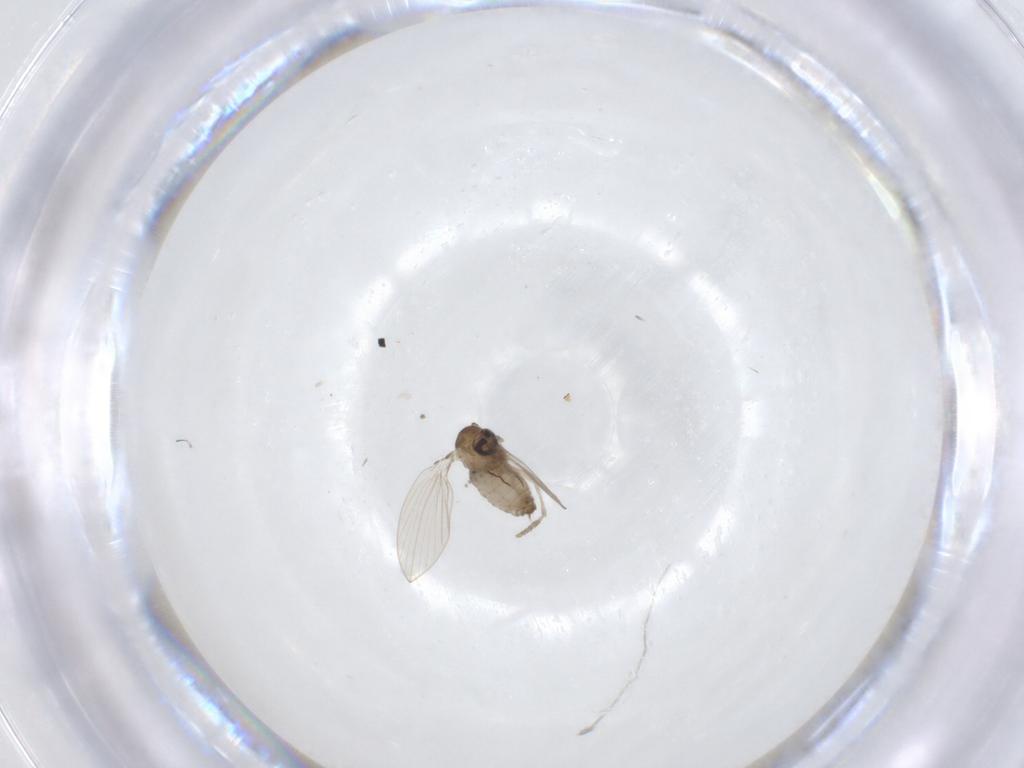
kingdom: Animalia
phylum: Arthropoda
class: Insecta
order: Diptera
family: Psychodidae
